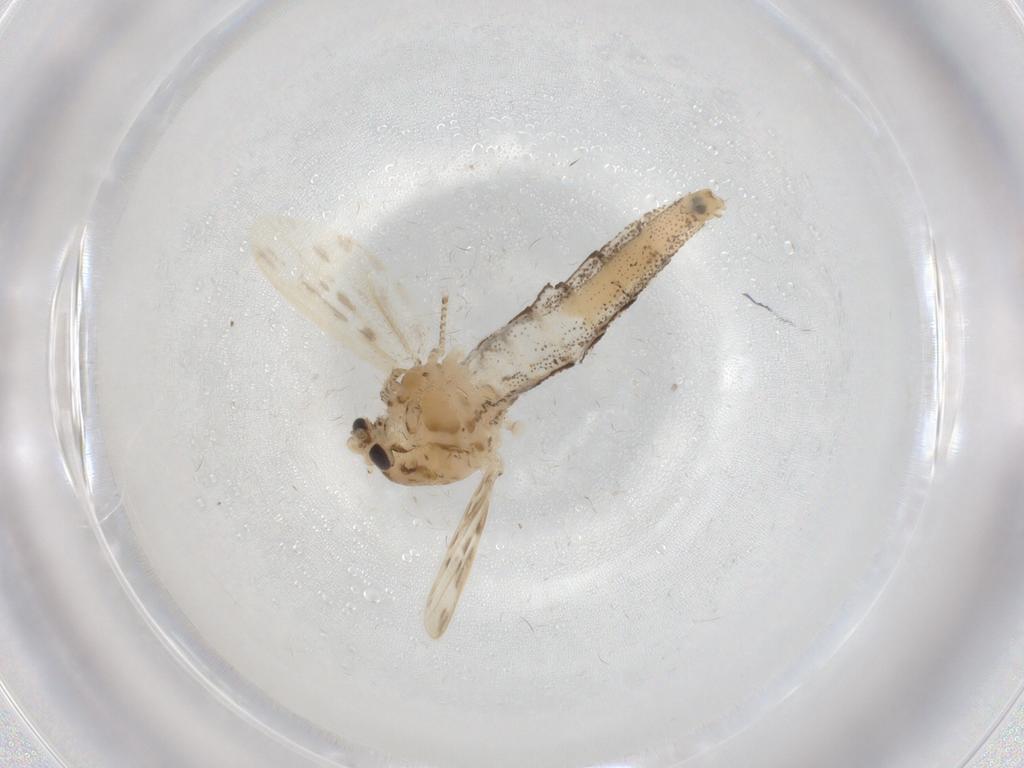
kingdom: Animalia
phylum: Arthropoda
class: Insecta
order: Diptera
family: Chaoboridae
